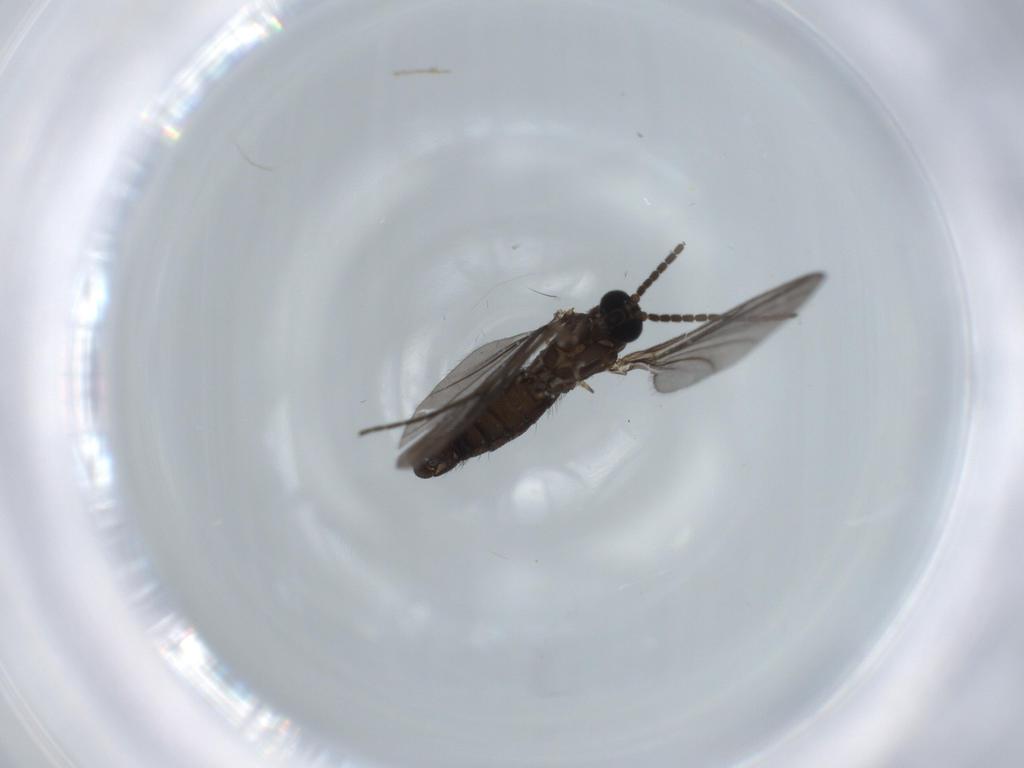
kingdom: Animalia
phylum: Arthropoda
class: Insecta
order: Diptera
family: Sciaridae
